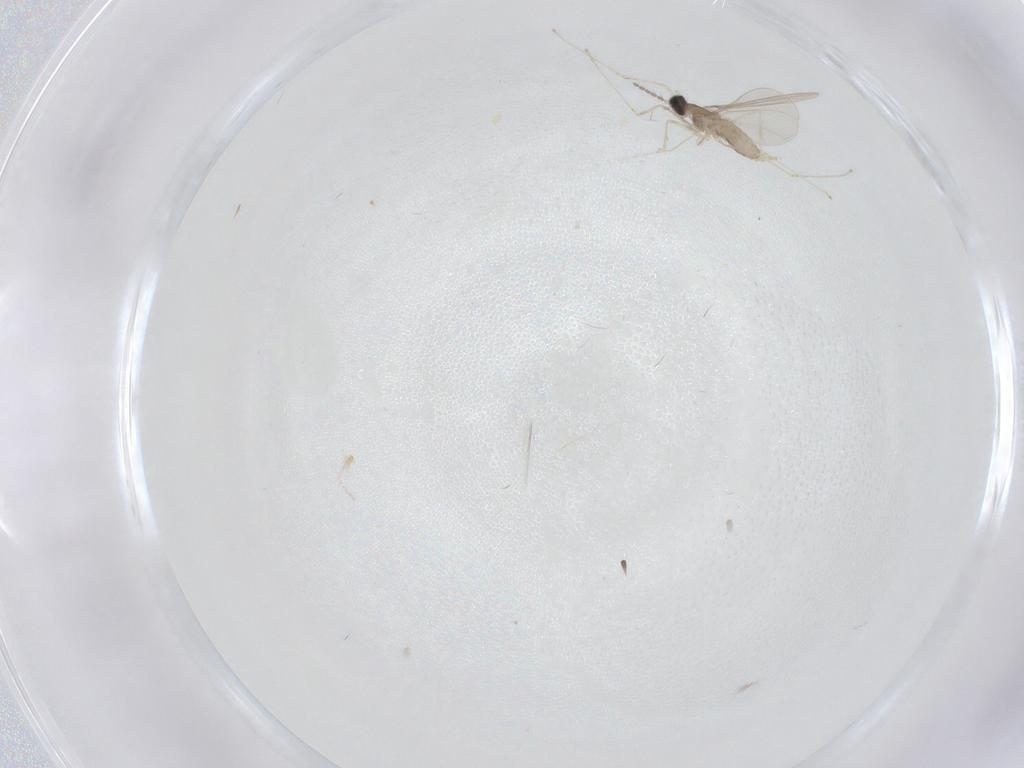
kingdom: Animalia
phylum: Arthropoda
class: Insecta
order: Diptera
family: Cecidomyiidae
